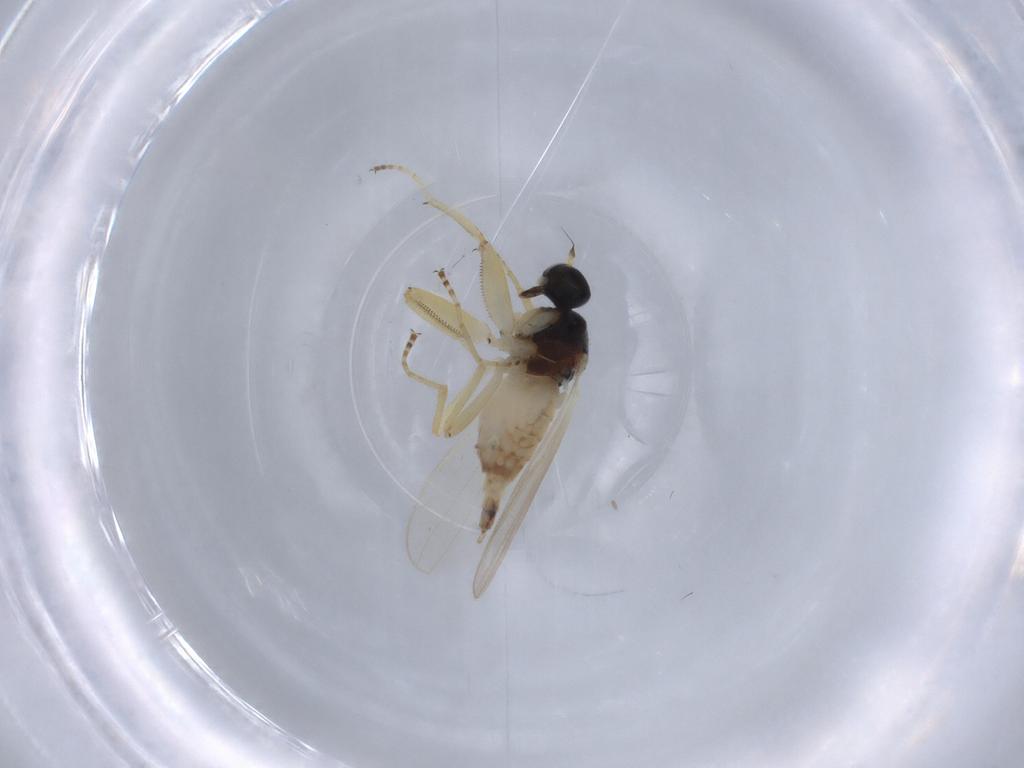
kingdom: Animalia
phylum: Arthropoda
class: Insecta
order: Diptera
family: Hybotidae
